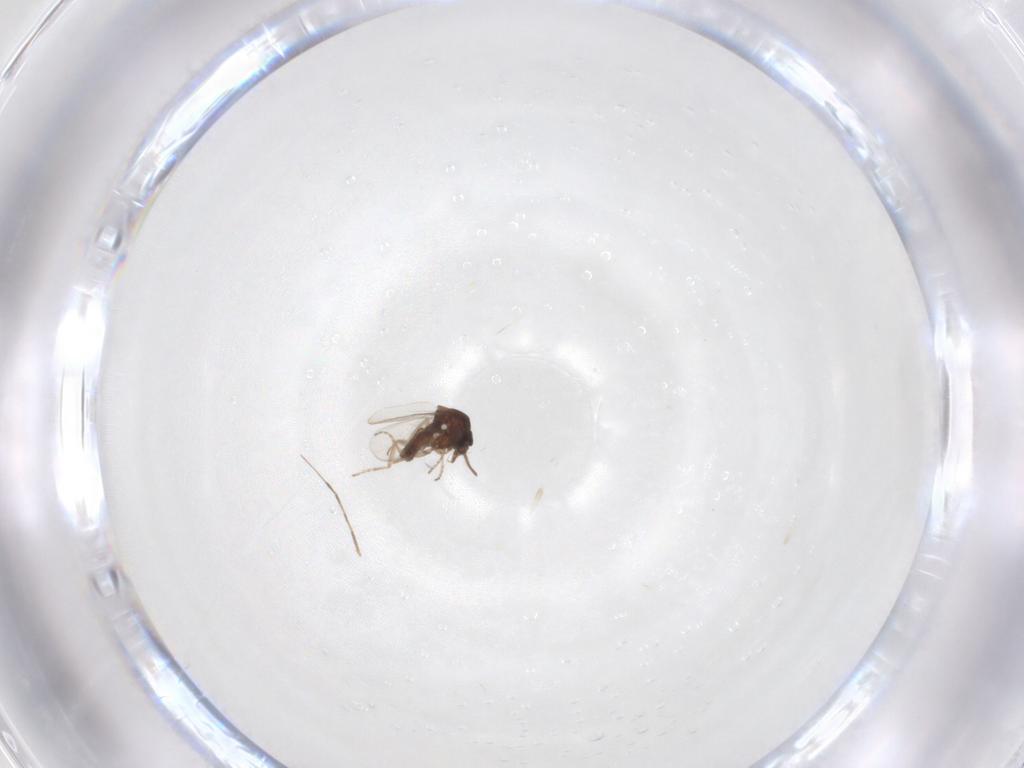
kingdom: Animalia
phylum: Arthropoda
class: Insecta
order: Diptera
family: Ceratopogonidae
